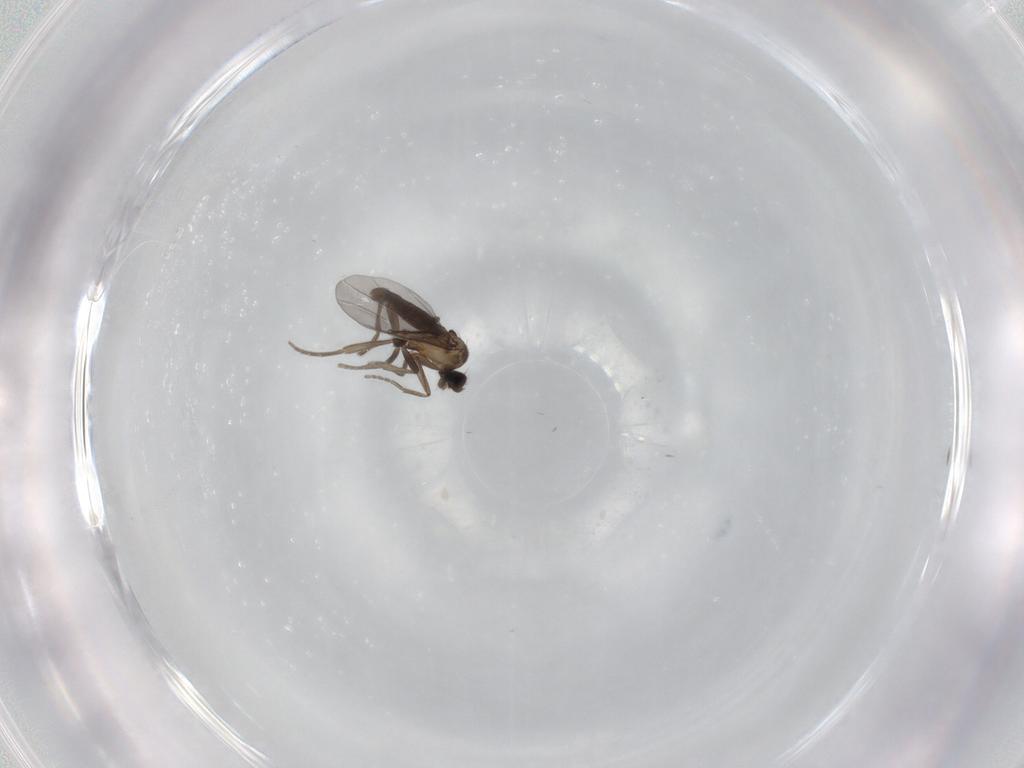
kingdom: Animalia
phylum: Arthropoda
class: Insecta
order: Diptera
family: Phoridae
